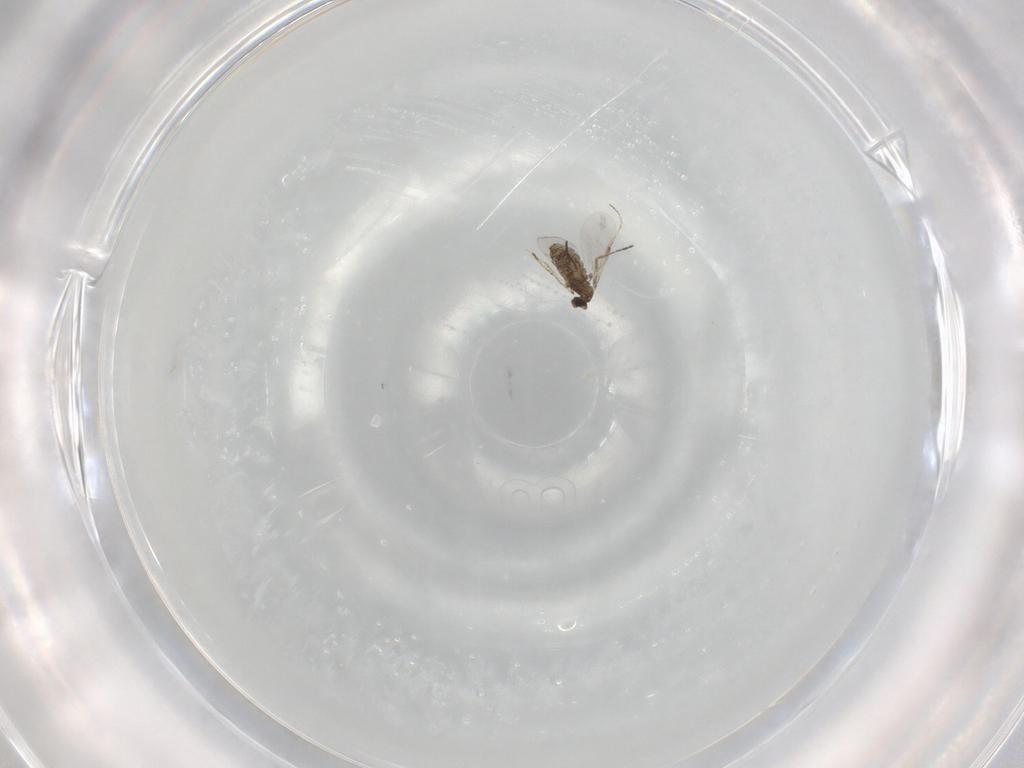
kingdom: Animalia
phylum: Arthropoda
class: Insecta
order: Diptera
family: Cecidomyiidae
